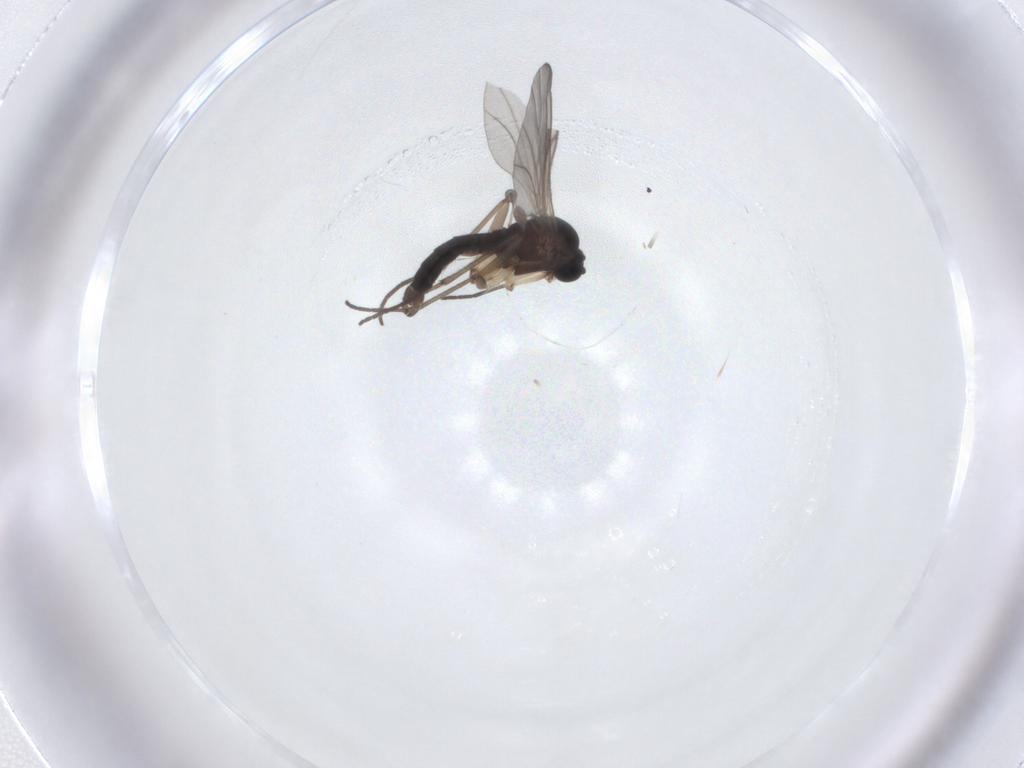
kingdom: Animalia
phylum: Arthropoda
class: Insecta
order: Diptera
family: Sciaridae
